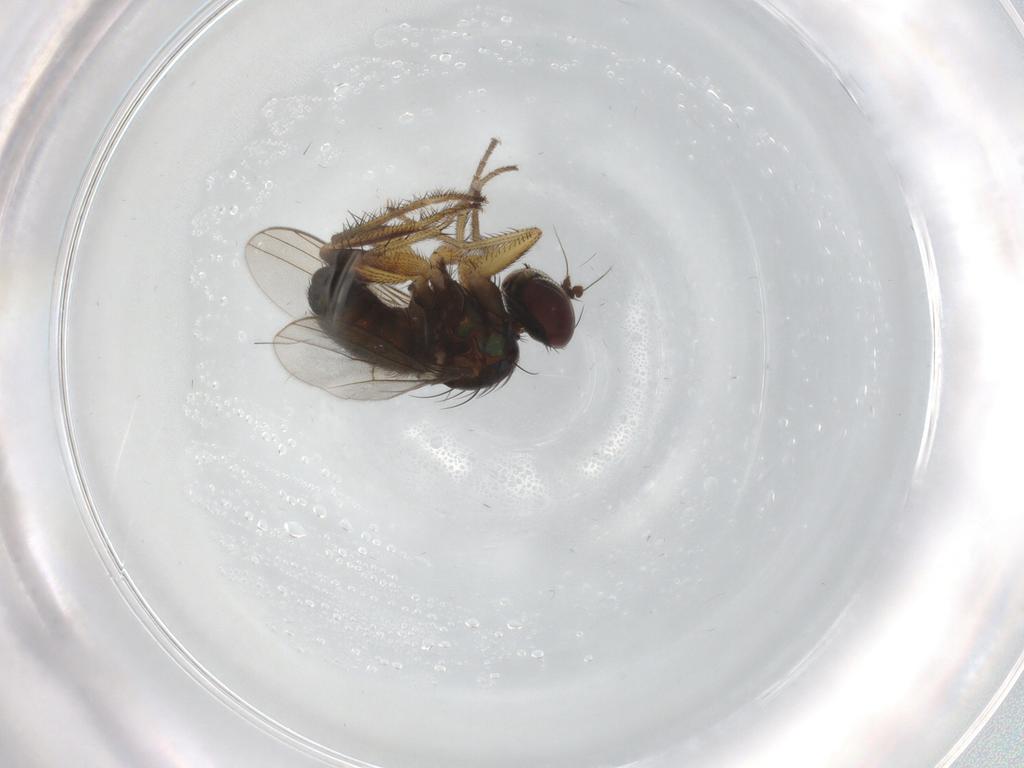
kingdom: Animalia
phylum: Arthropoda
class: Insecta
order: Diptera
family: Dolichopodidae
